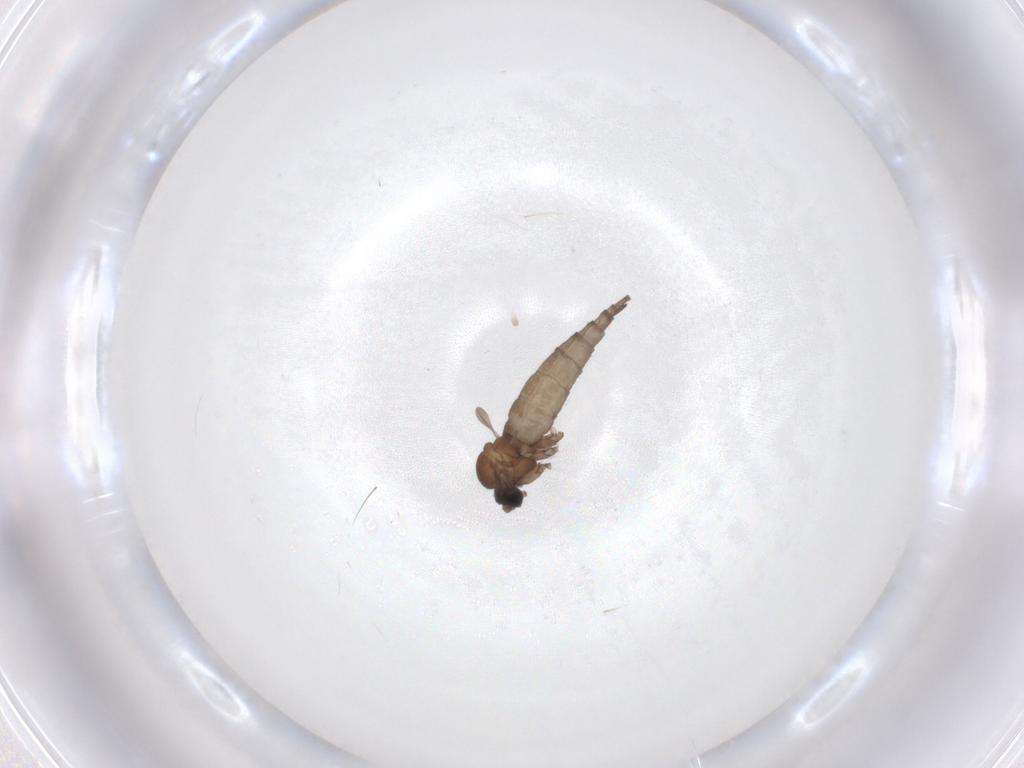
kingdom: Animalia
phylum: Arthropoda
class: Insecta
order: Diptera
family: Sciaridae
